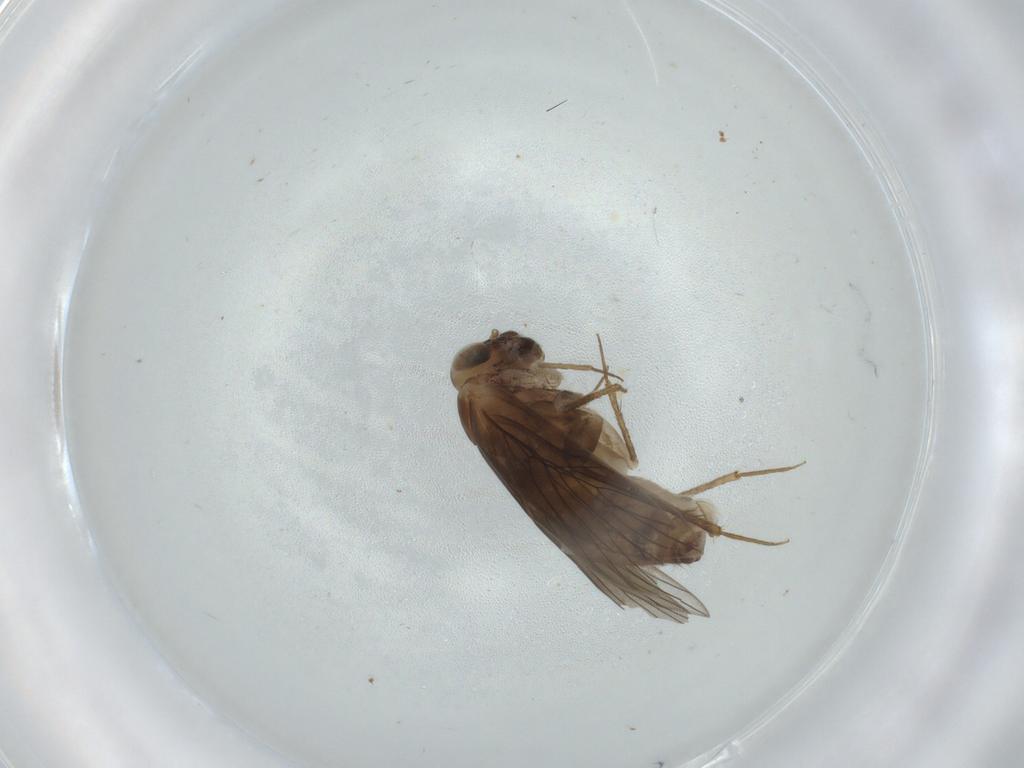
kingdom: Animalia
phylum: Arthropoda
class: Insecta
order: Psocodea
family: Lepidopsocidae
